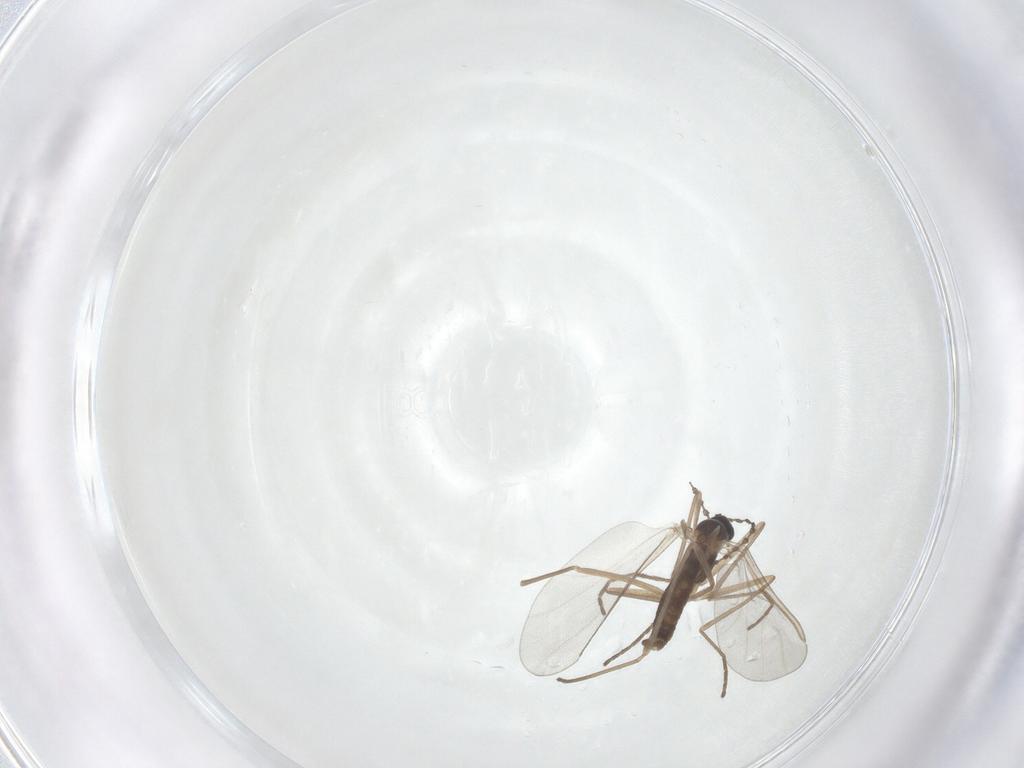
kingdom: Animalia
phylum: Arthropoda
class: Insecta
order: Diptera
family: Cecidomyiidae
